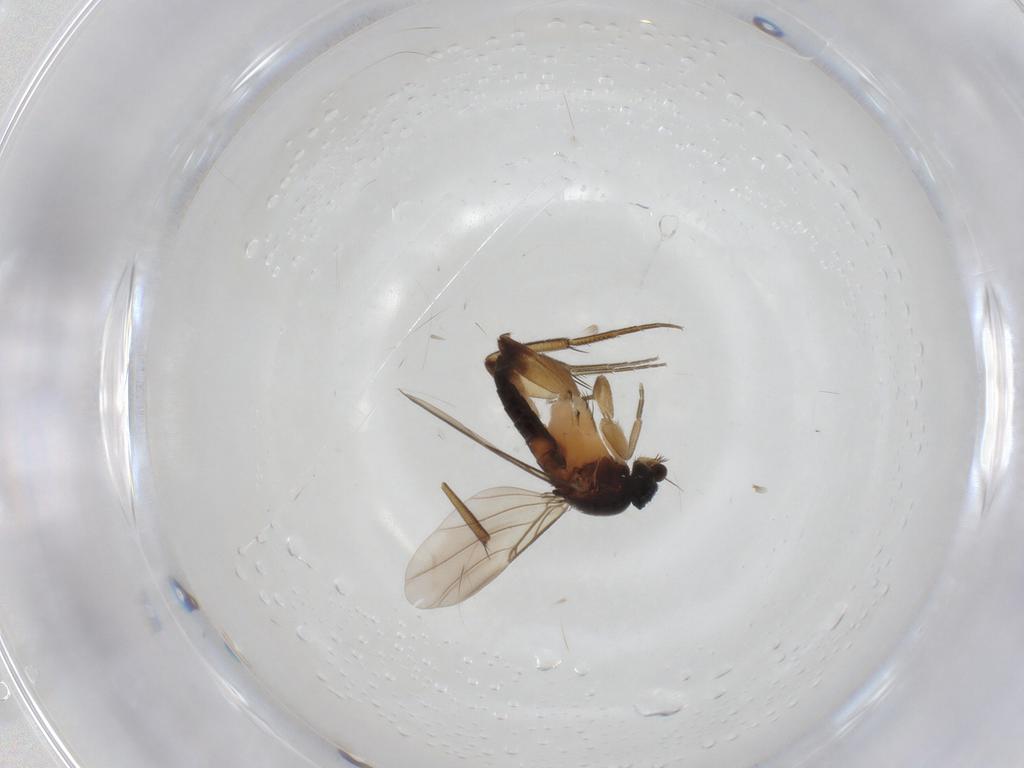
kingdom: Animalia
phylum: Arthropoda
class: Insecta
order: Diptera
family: Phoridae
